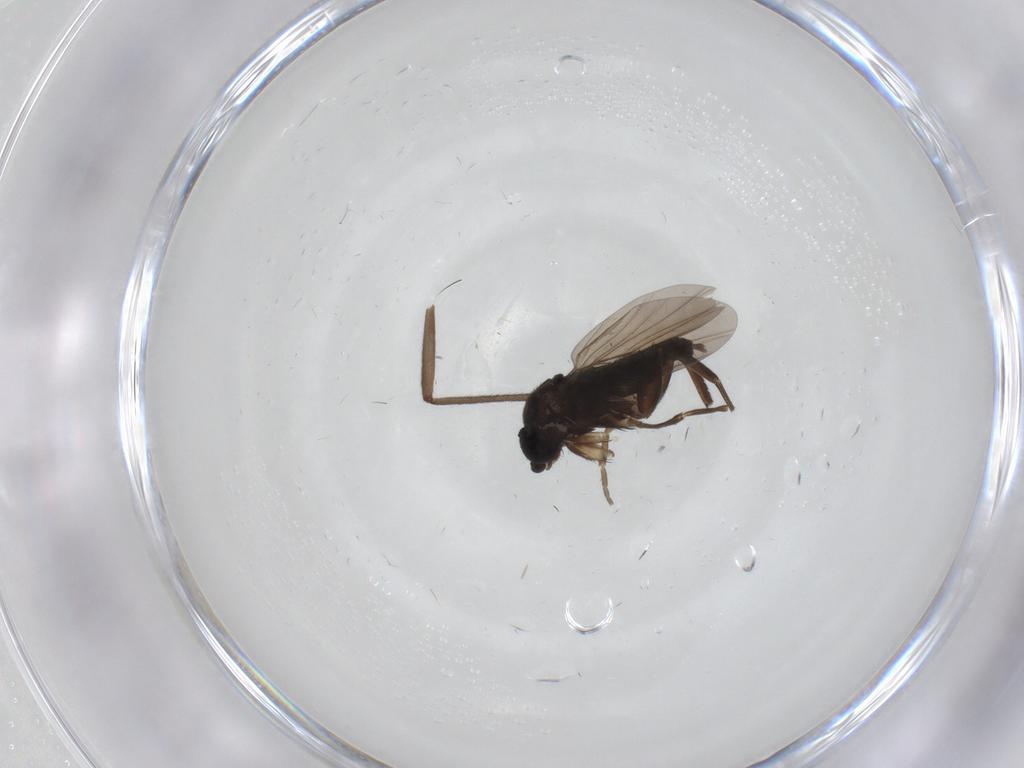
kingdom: Animalia
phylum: Arthropoda
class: Insecta
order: Diptera
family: Phoridae
